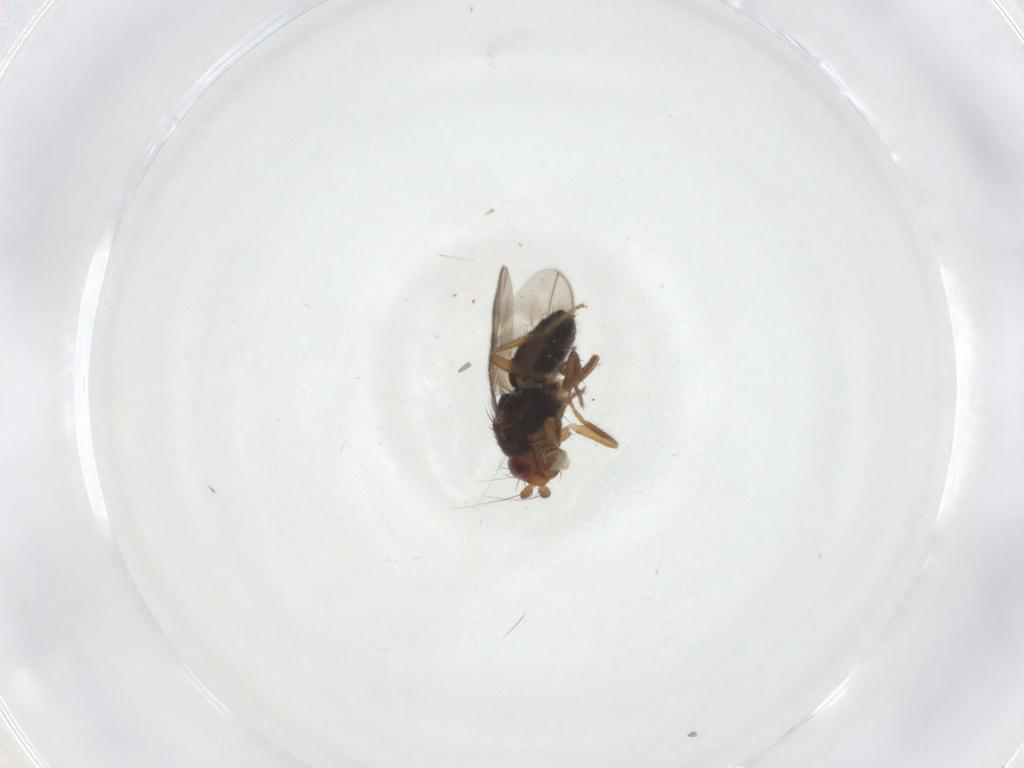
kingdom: Animalia
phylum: Arthropoda
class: Insecta
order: Diptera
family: Sphaeroceridae
